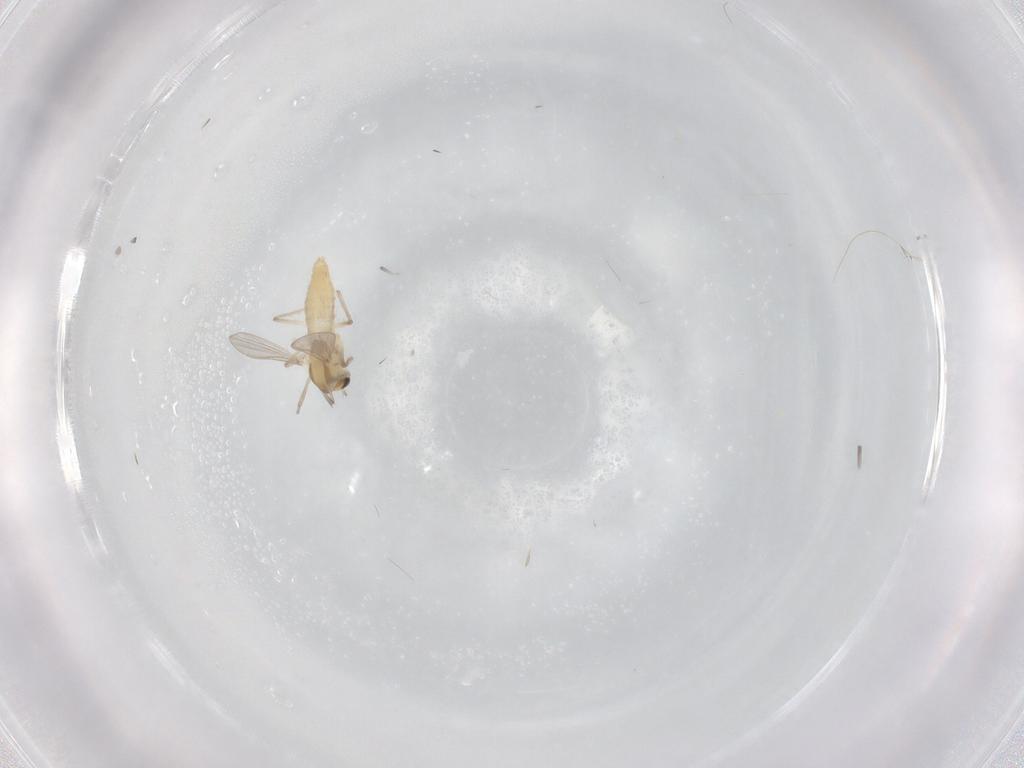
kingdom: Animalia
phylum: Arthropoda
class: Insecta
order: Diptera
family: Chironomidae
